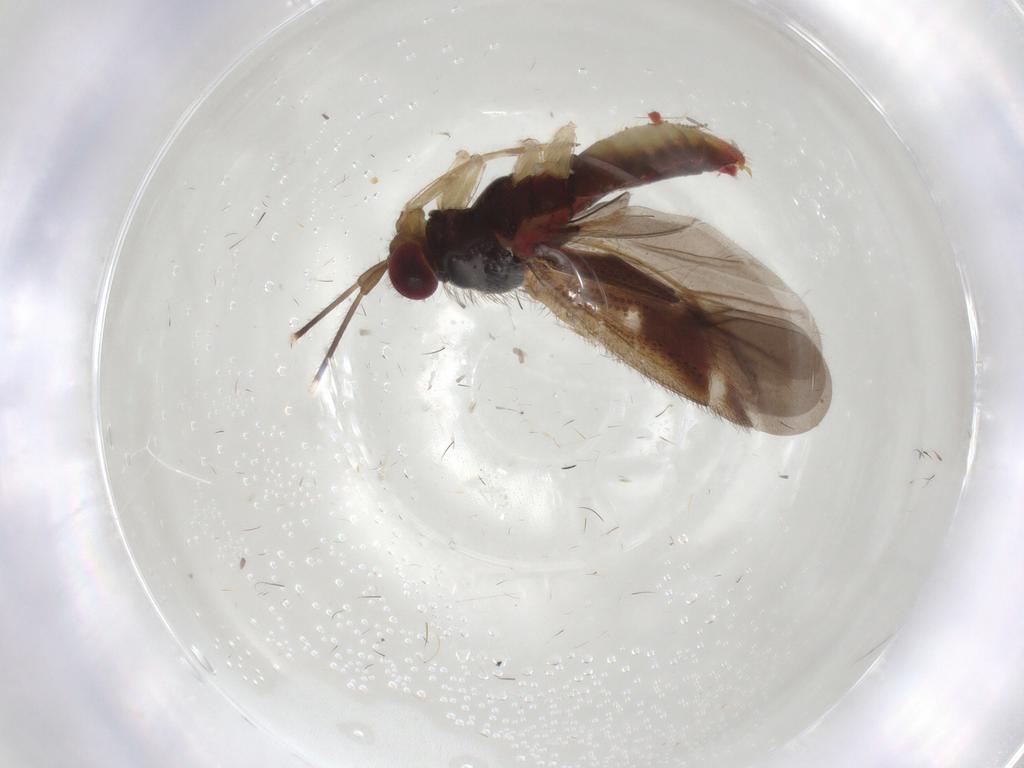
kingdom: Animalia
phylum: Arthropoda
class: Insecta
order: Hemiptera
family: Miridae
